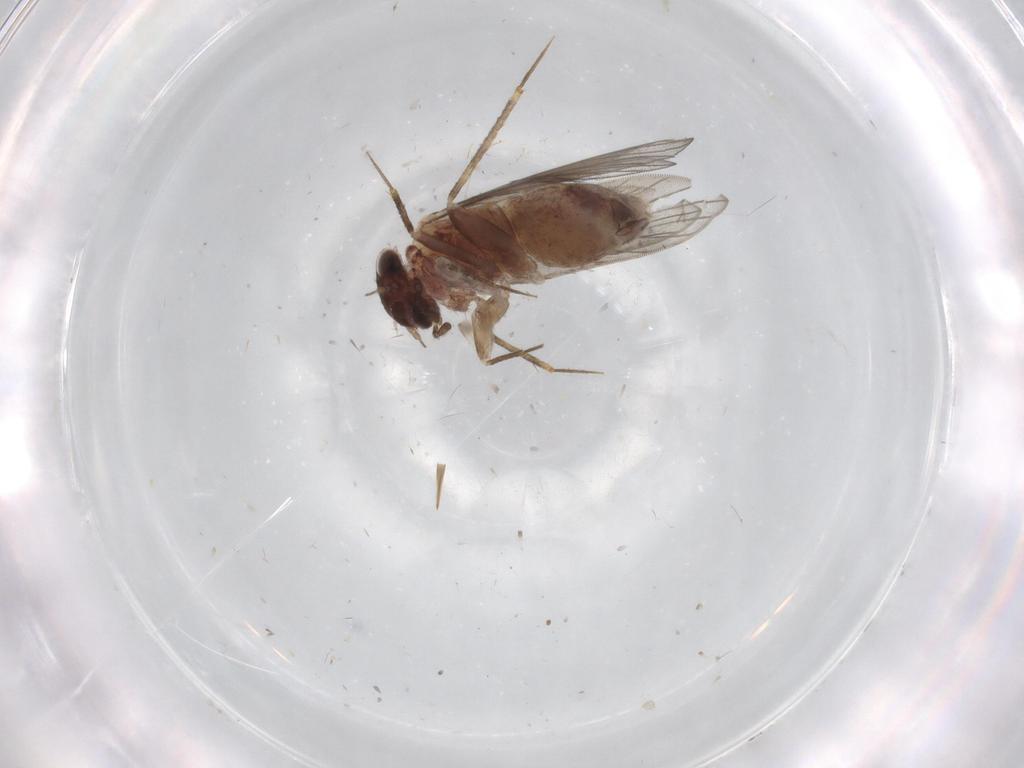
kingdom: Animalia
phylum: Arthropoda
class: Insecta
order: Psocodea
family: Lepidopsocidae
